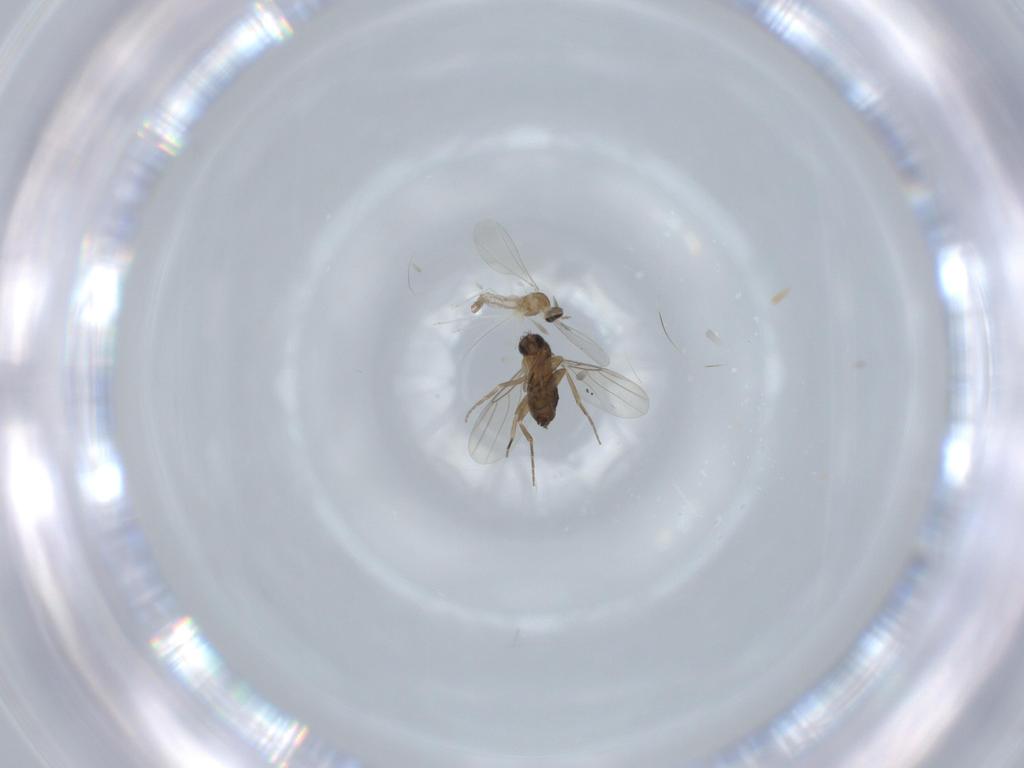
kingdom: Animalia
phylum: Arthropoda
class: Insecta
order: Diptera
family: Phoridae
